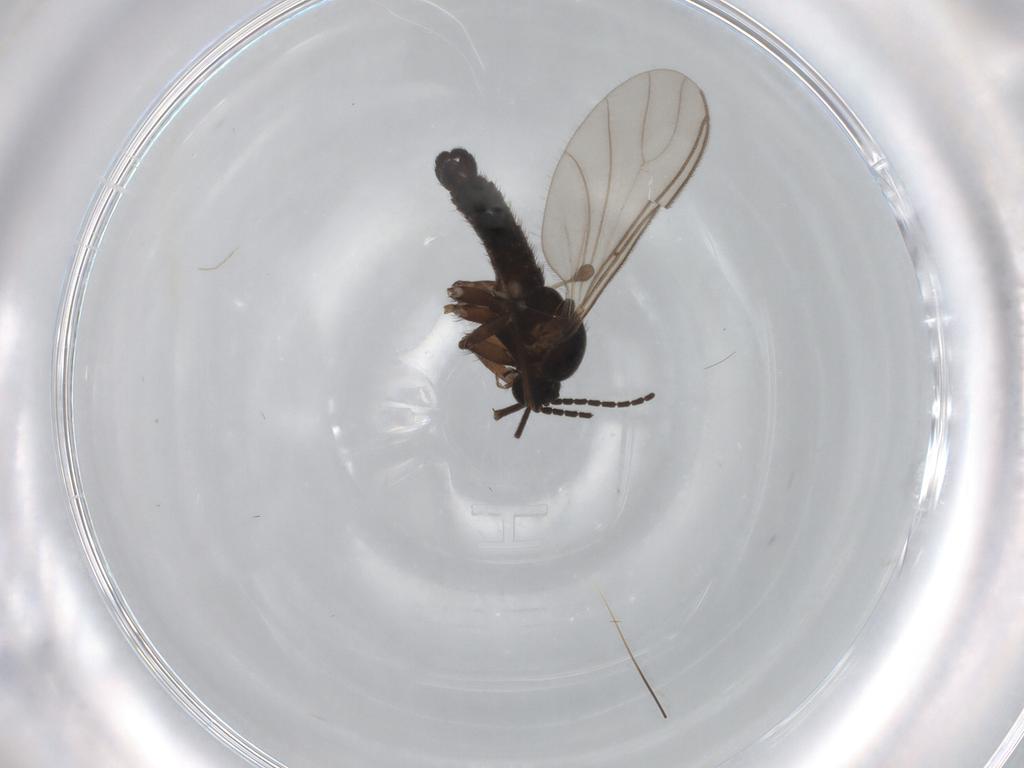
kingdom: Animalia
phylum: Arthropoda
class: Insecta
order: Diptera
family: Sciaridae
